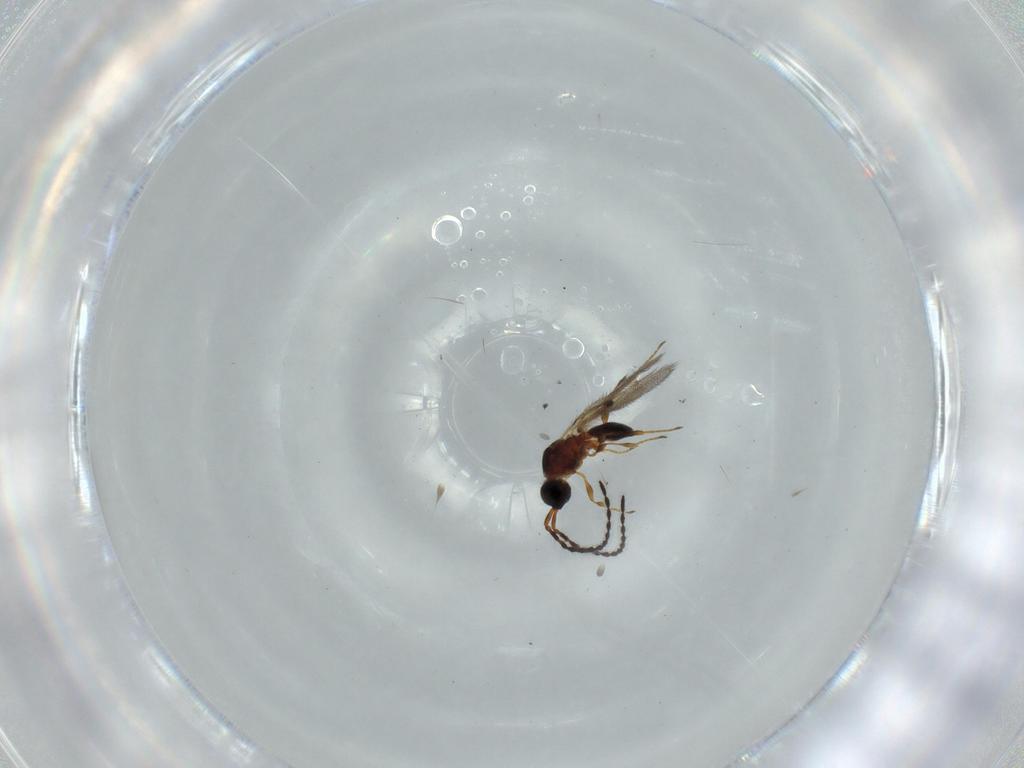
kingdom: Animalia
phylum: Arthropoda
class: Insecta
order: Hymenoptera
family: Diapriidae
